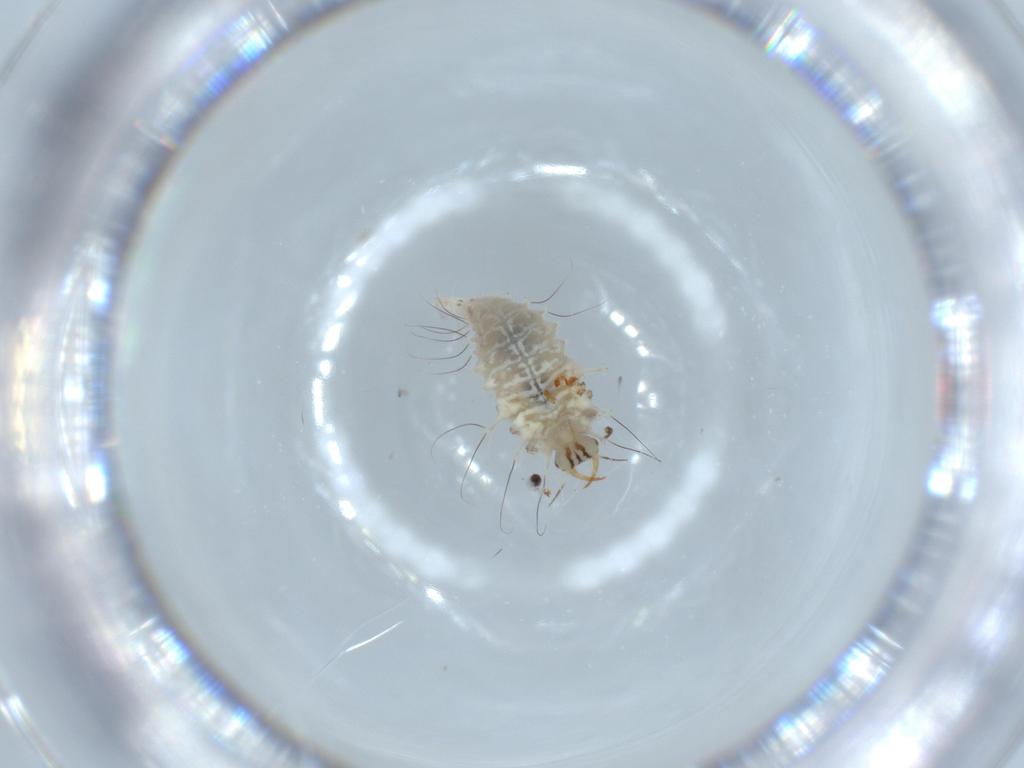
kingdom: Animalia
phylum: Arthropoda
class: Insecta
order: Neuroptera
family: Chrysopidae
